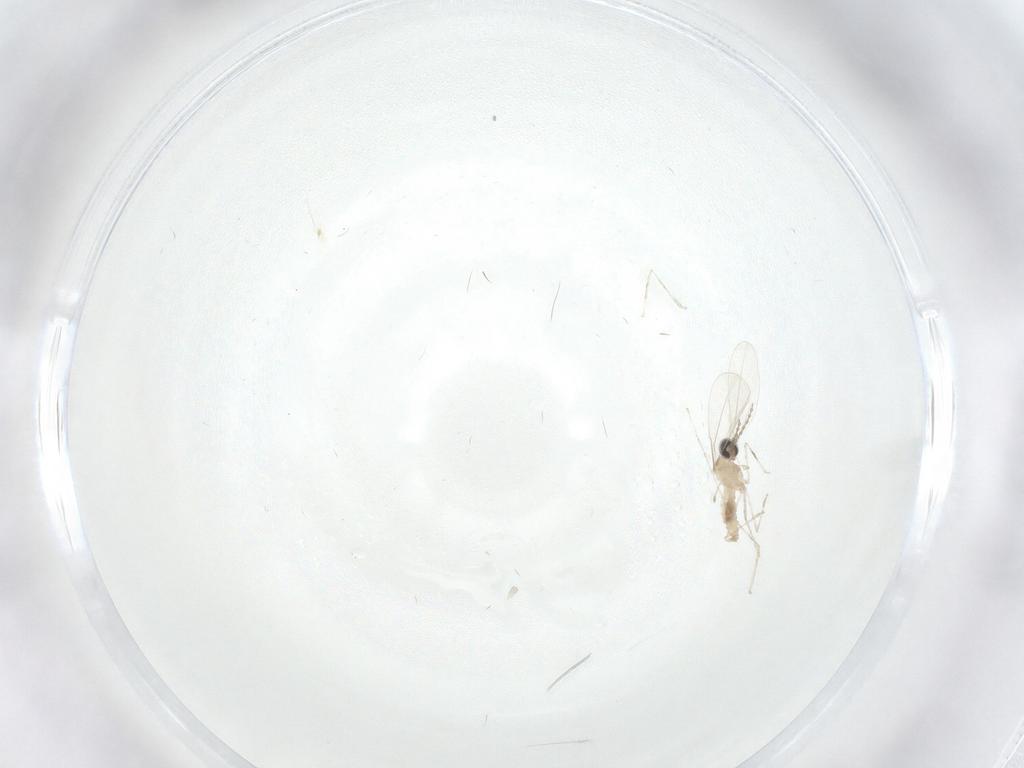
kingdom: Animalia
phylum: Arthropoda
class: Insecta
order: Diptera
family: Cecidomyiidae
